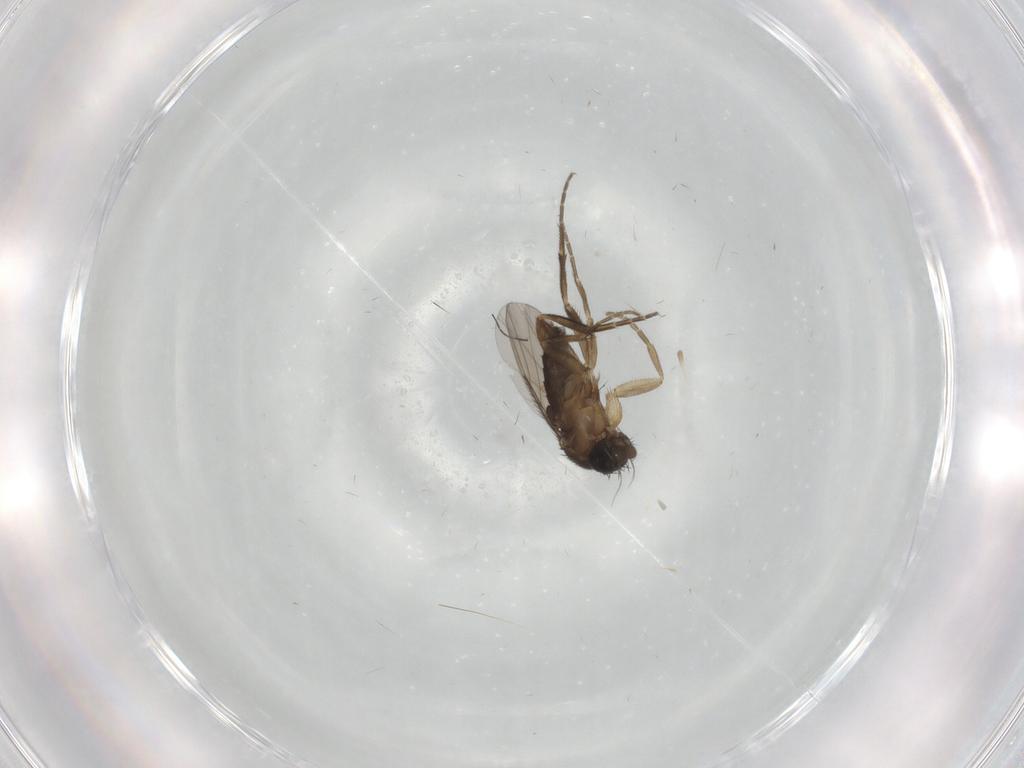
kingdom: Animalia
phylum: Arthropoda
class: Insecta
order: Diptera
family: Phoridae
